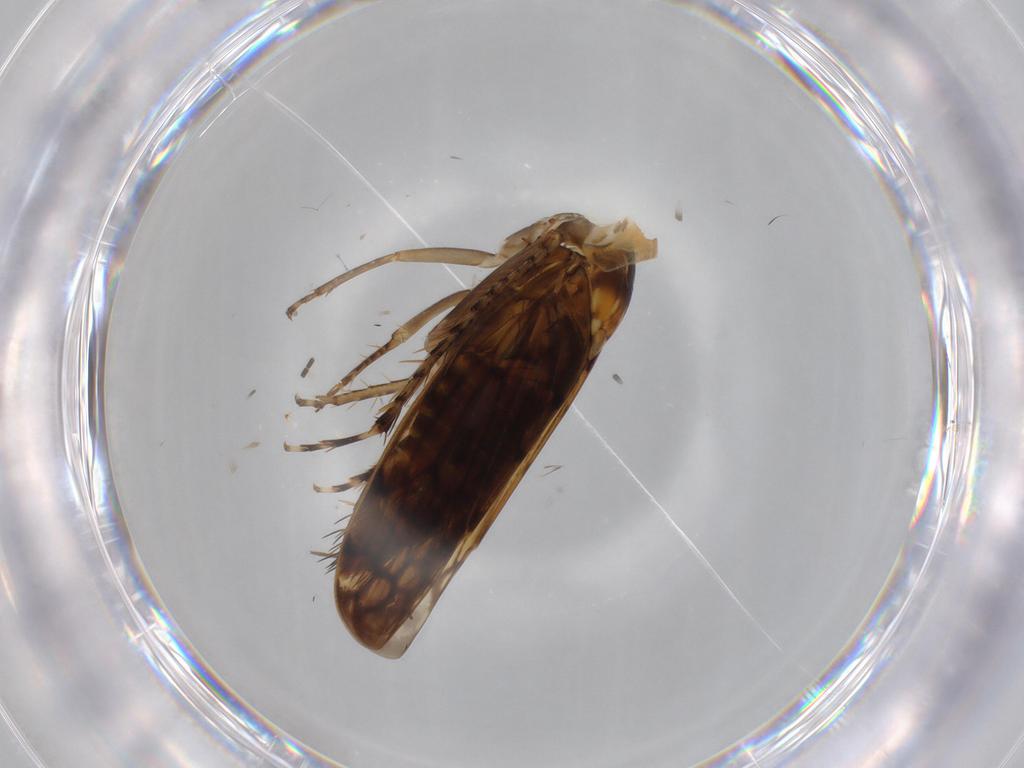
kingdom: Animalia
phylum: Arthropoda
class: Insecta
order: Hemiptera
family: Cicadellidae
